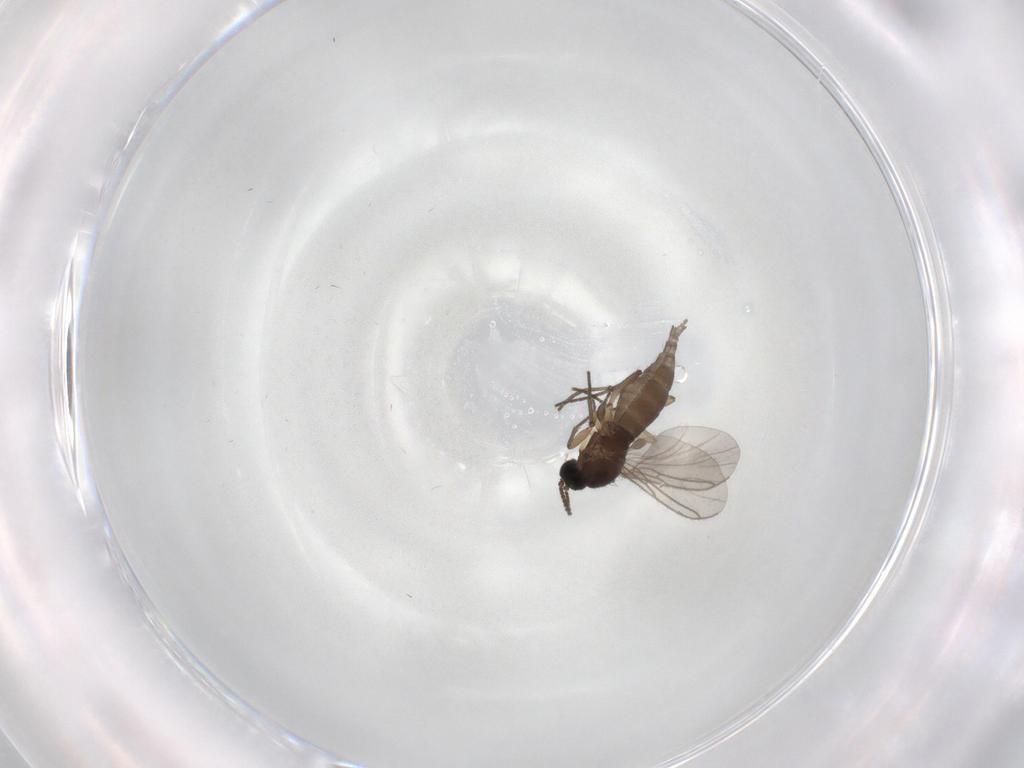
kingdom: Animalia
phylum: Arthropoda
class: Insecta
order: Diptera
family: Sciaridae
